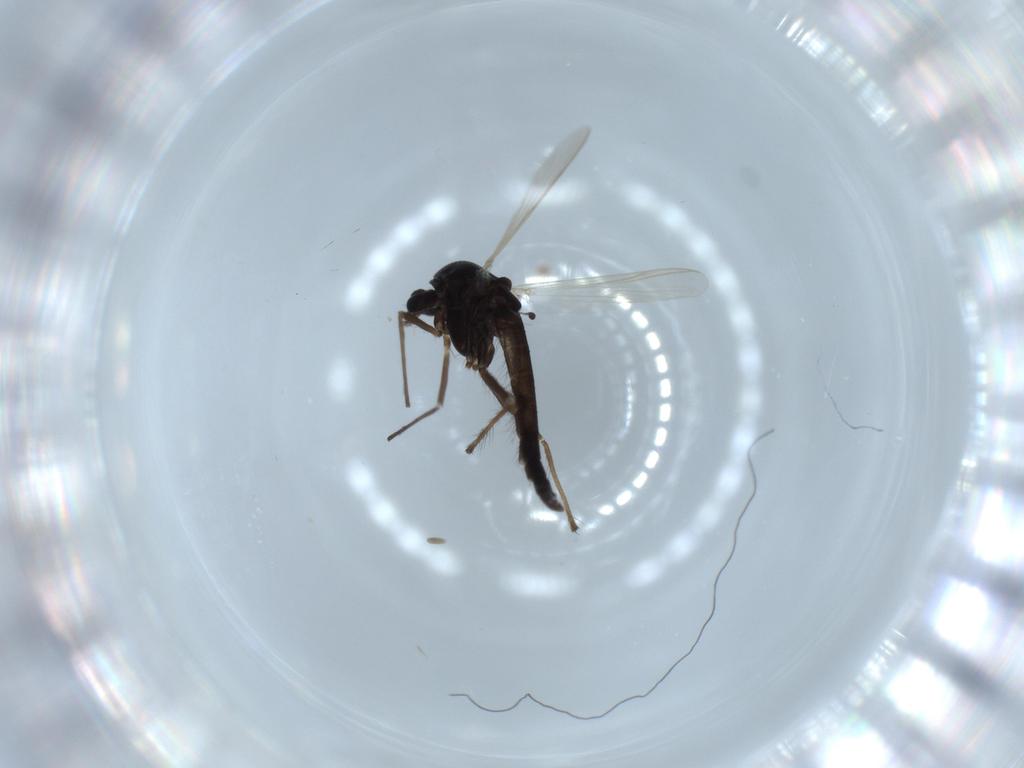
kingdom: Animalia
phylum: Arthropoda
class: Insecta
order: Diptera
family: Chironomidae
